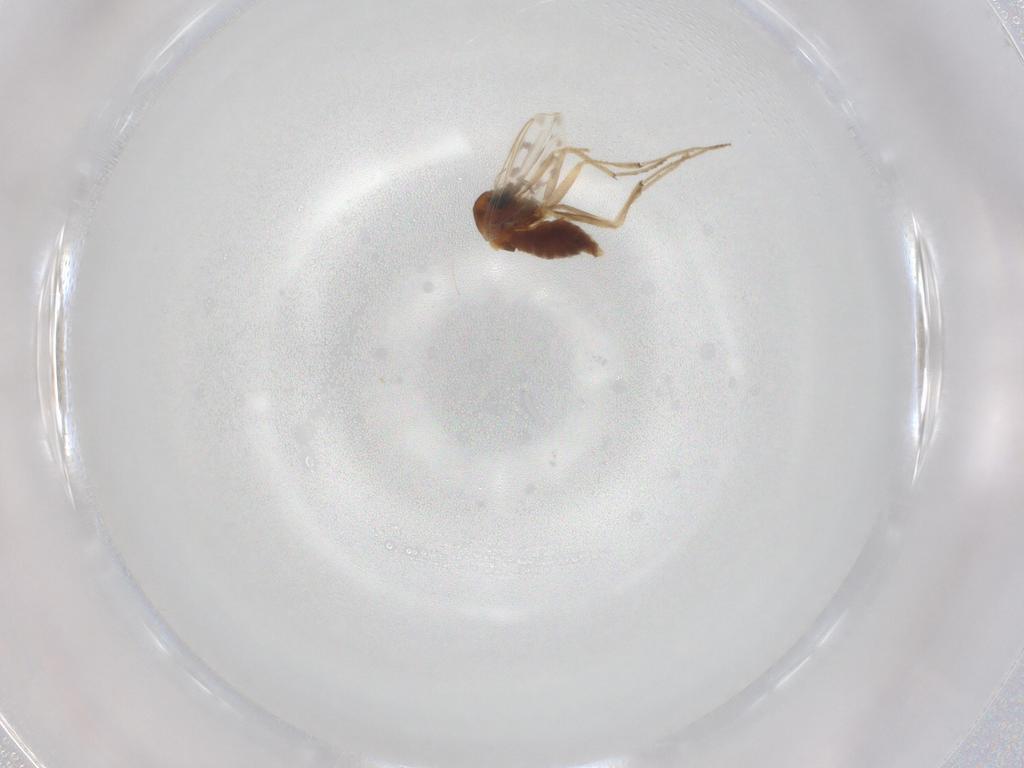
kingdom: Animalia
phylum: Arthropoda
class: Insecta
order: Diptera
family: Chironomidae
